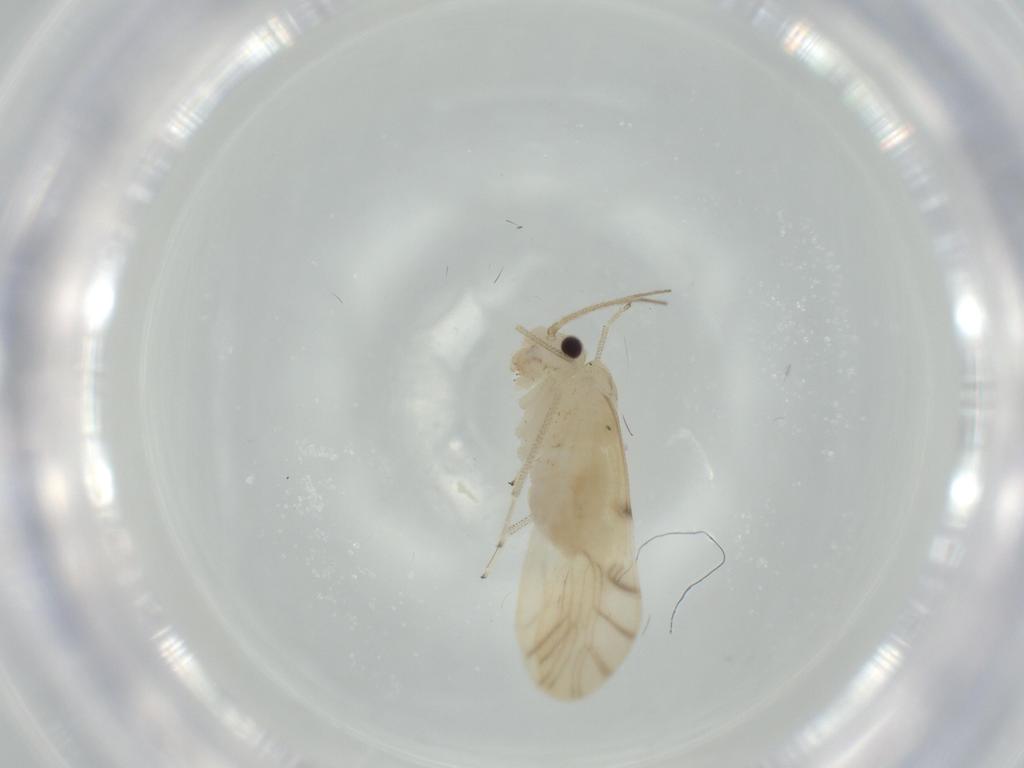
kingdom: Animalia
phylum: Arthropoda
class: Insecta
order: Psocodea
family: Caeciliusidae
